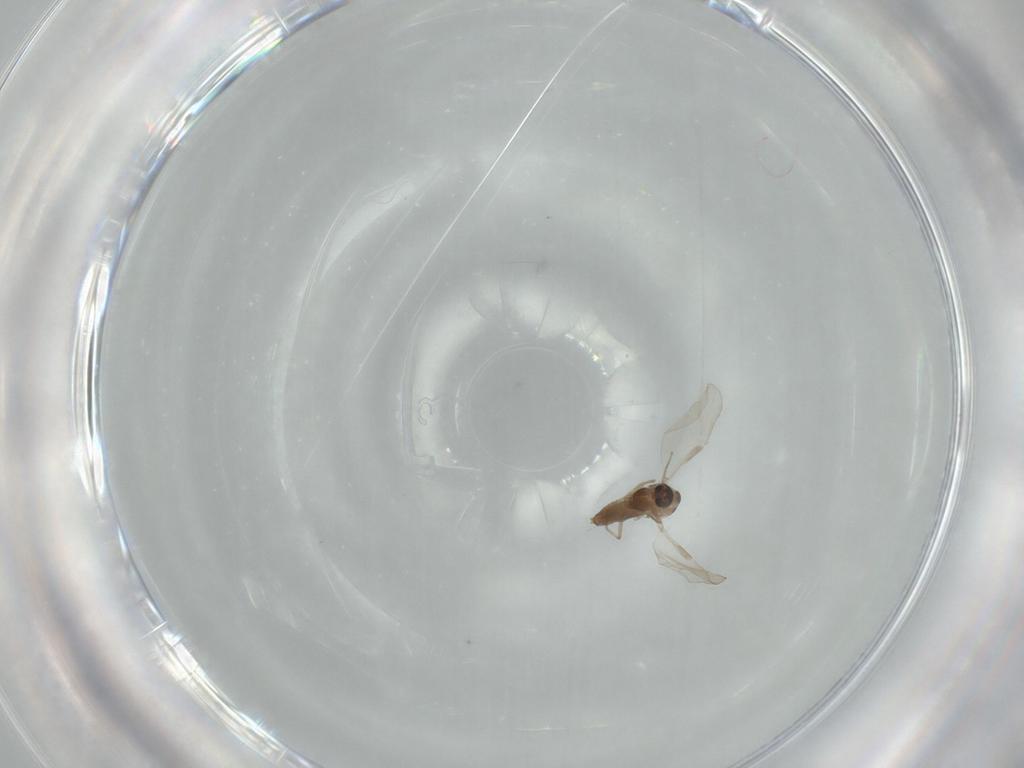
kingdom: Animalia
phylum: Arthropoda
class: Insecta
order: Diptera
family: Chironomidae
